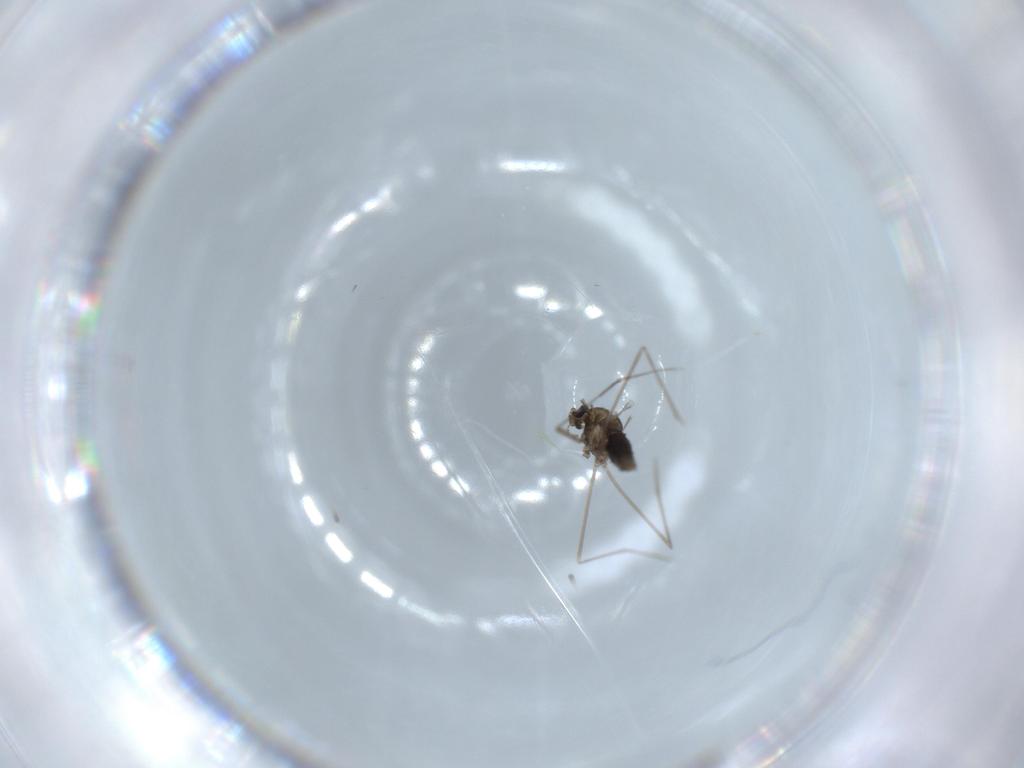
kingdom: Animalia
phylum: Arthropoda
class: Insecta
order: Diptera
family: Cecidomyiidae
